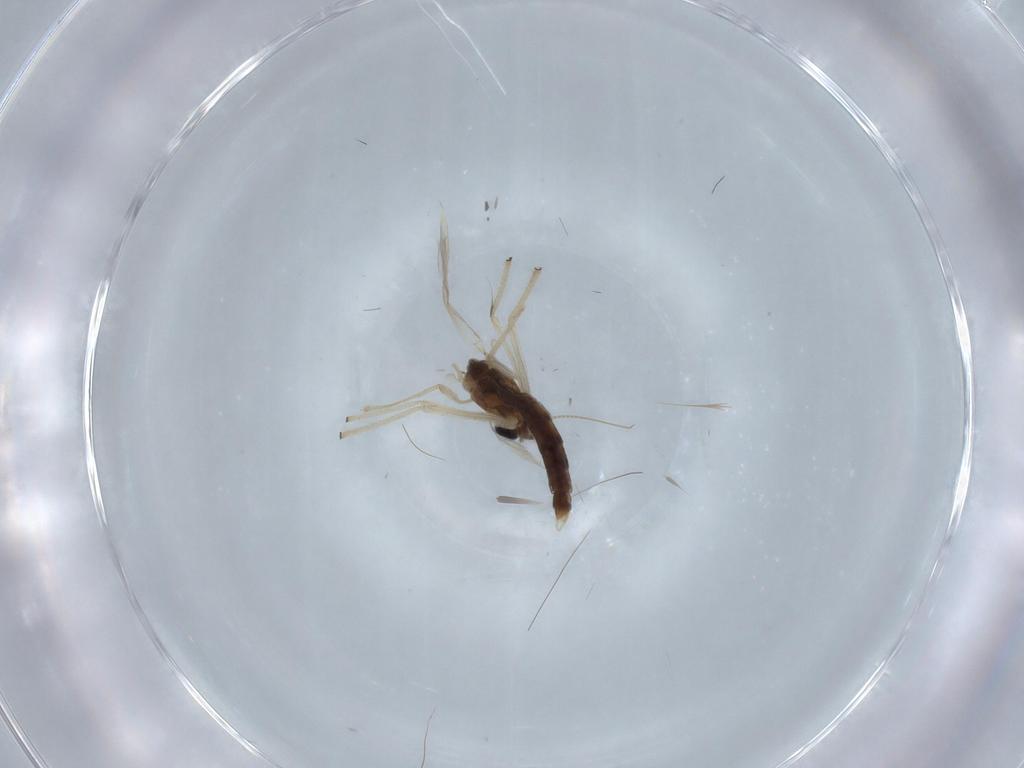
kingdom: Animalia
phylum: Arthropoda
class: Insecta
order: Diptera
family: Chironomidae
